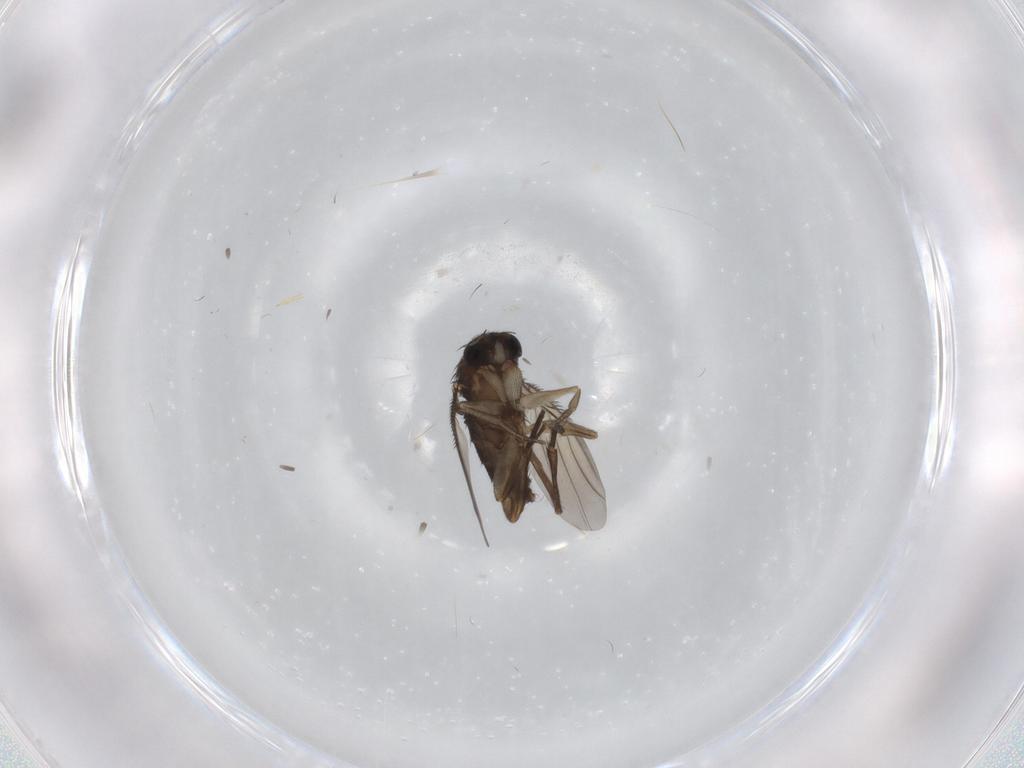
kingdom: Animalia
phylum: Arthropoda
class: Insecta
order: Diptera
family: Phoridae
